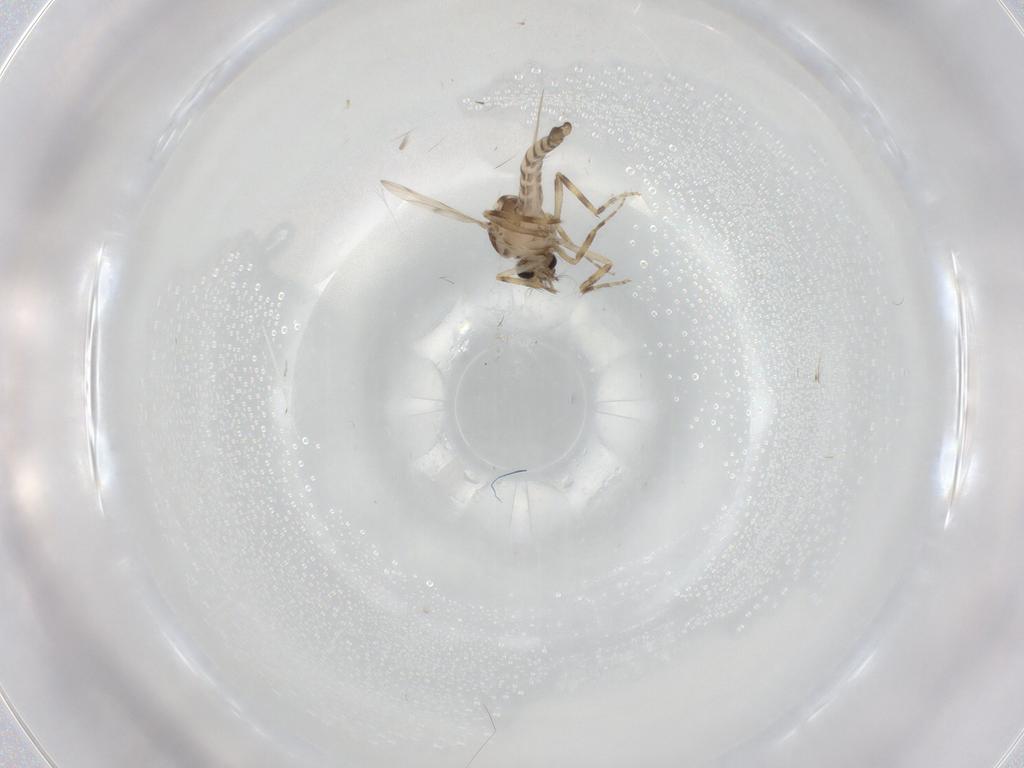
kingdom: Animalia
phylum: Arthropoda
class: Insecta
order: Diptera
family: Ceratopogonidae
